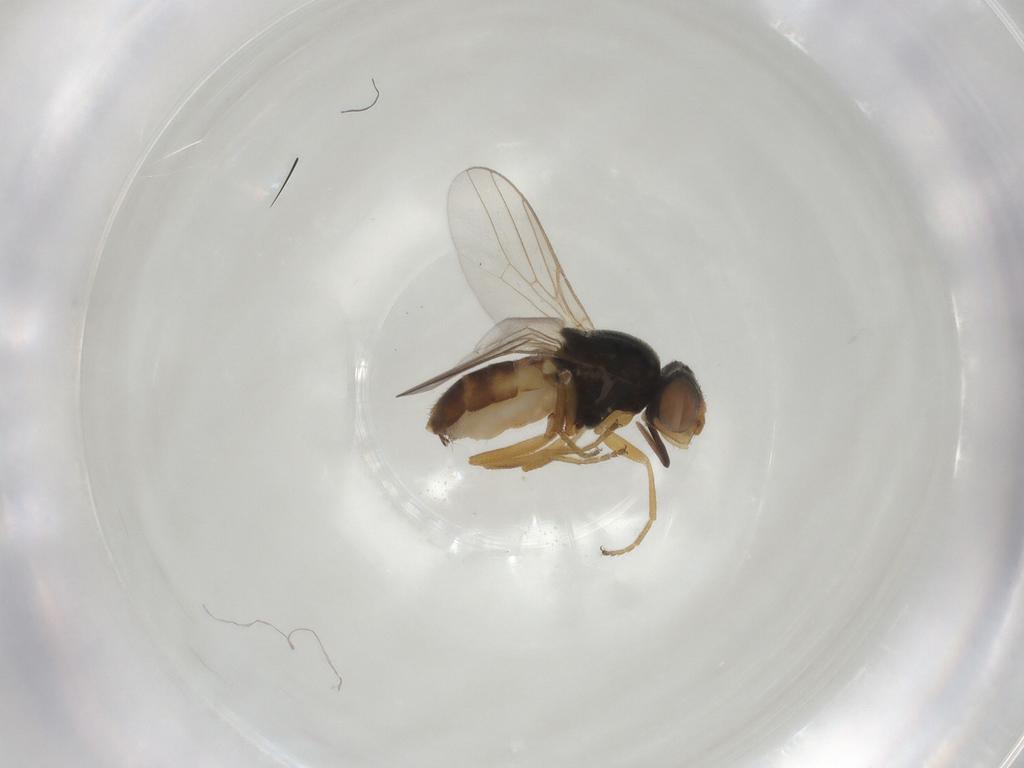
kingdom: Animalia
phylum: Arthropoda
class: Insecta
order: Diptera
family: Chloropidae
